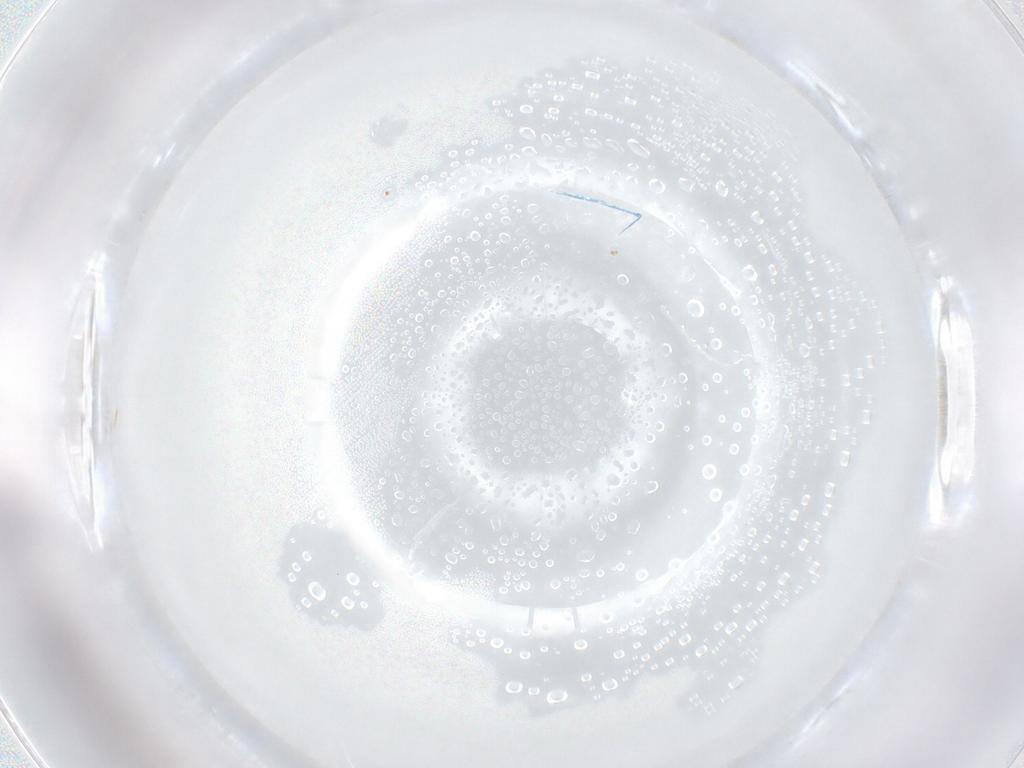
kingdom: Animalia
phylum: Arthropoda
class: Insecta
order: Diptera
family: Sciaridae
